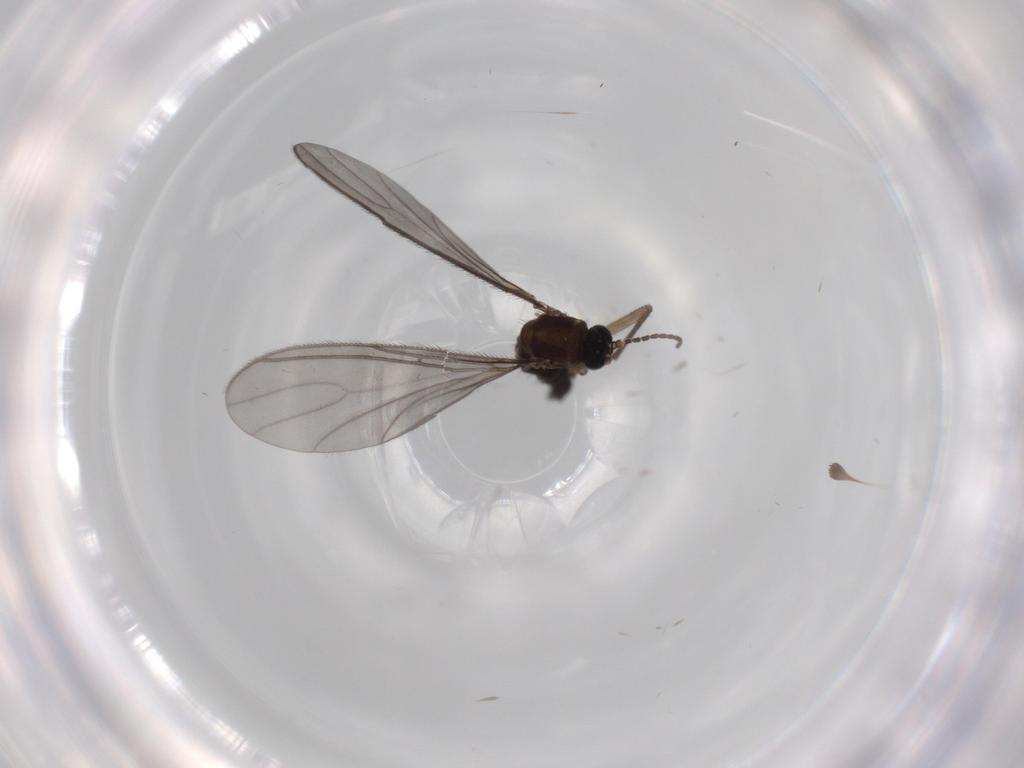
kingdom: Animalia
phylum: Arthropoda
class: Insecta
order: Diptera
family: Sciaridae
